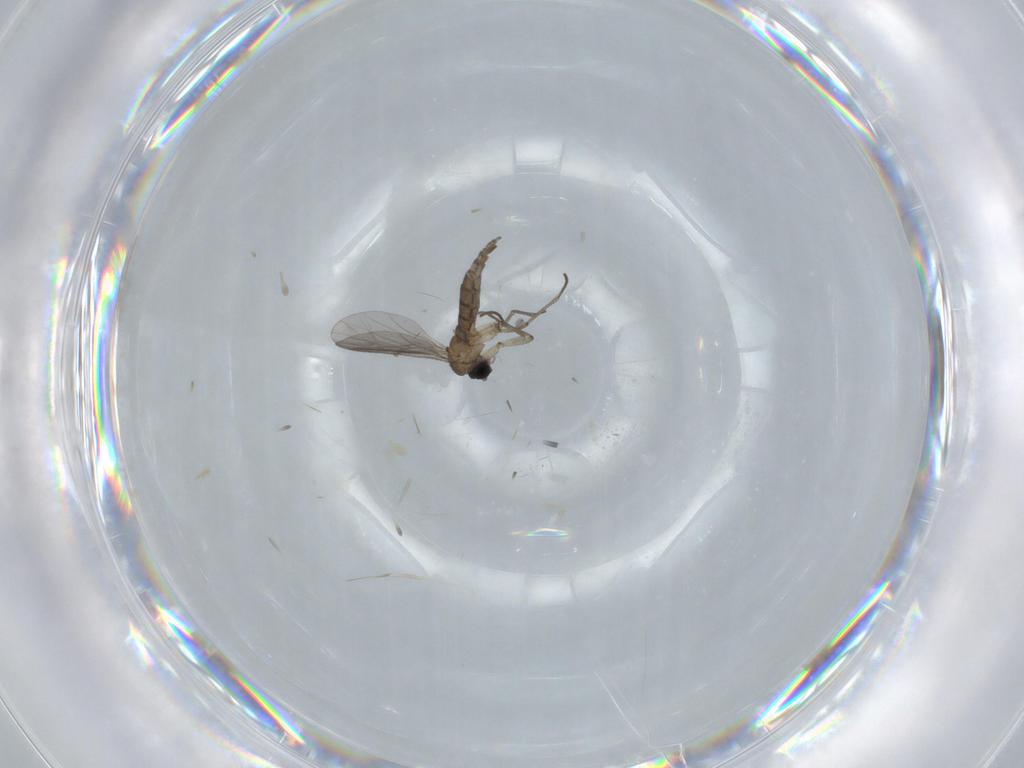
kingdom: Animalia
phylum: Arthropoda
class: Insecta
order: Diptera
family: Sciaridae
